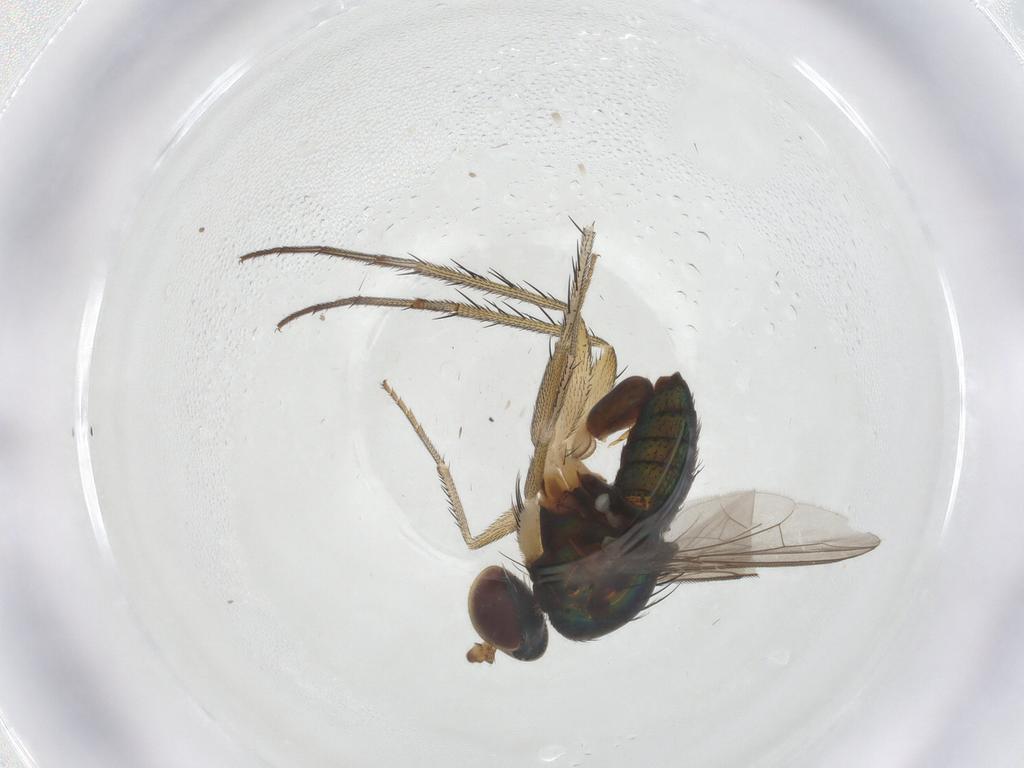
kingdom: Animalia
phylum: Arthropoda
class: Insecta
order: Diptera
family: Dolichopodidae
